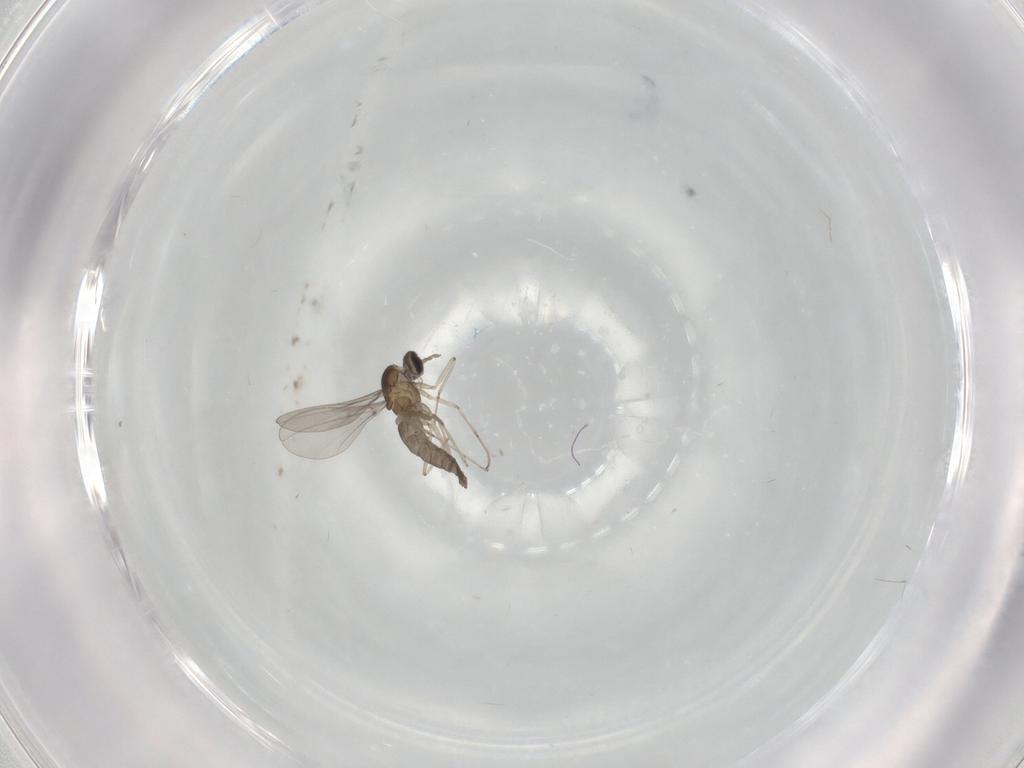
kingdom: Animalia
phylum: Arthropoda
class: Insecta
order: Diptera
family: Cecidomyiidae
